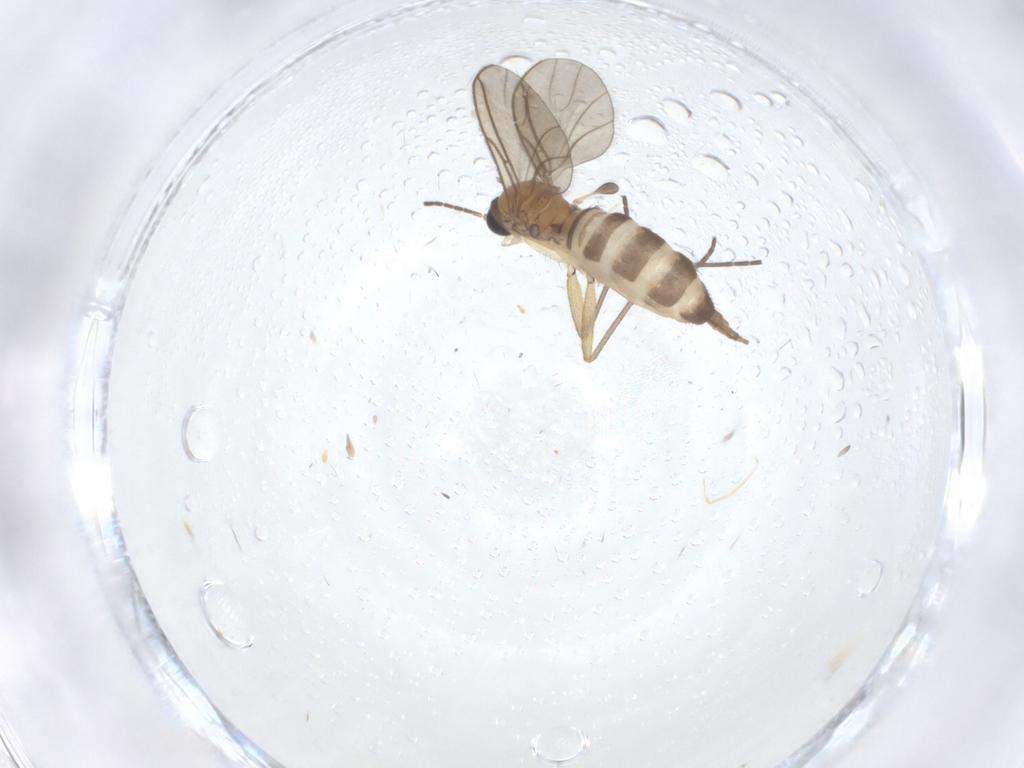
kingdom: Animalia
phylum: Arthropoda
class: Insecta
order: Diptera
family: Sciaridae
